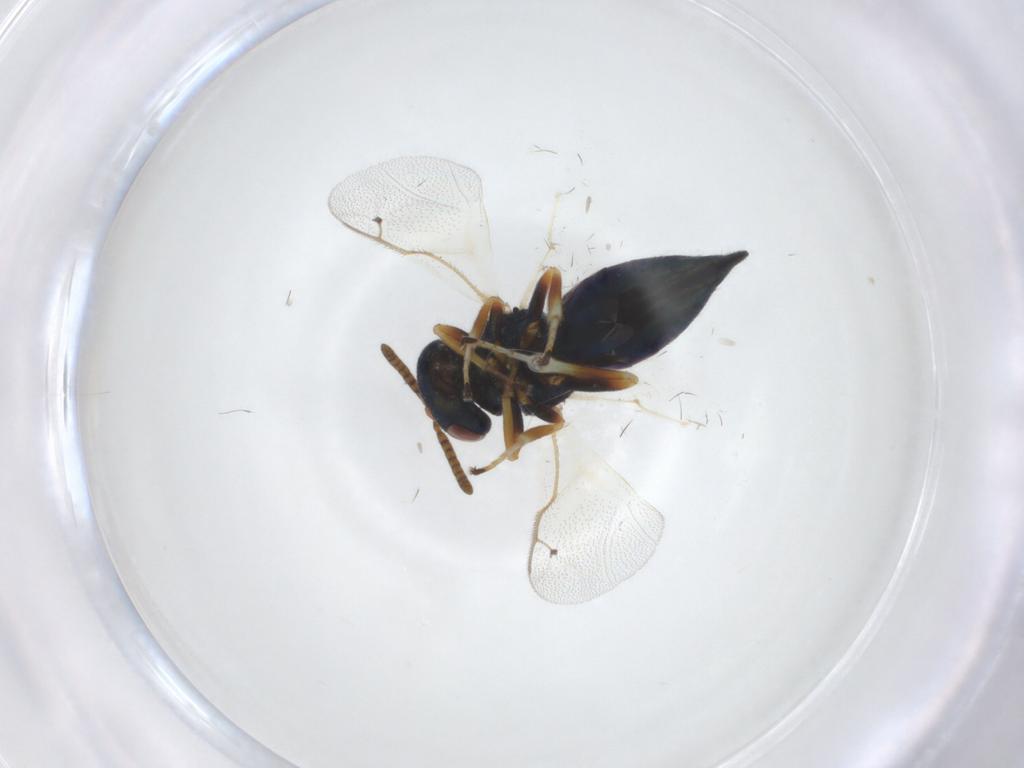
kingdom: Animalia
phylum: Arthropoda
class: Insecta
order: Hymenoptera
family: Pteromalidae
